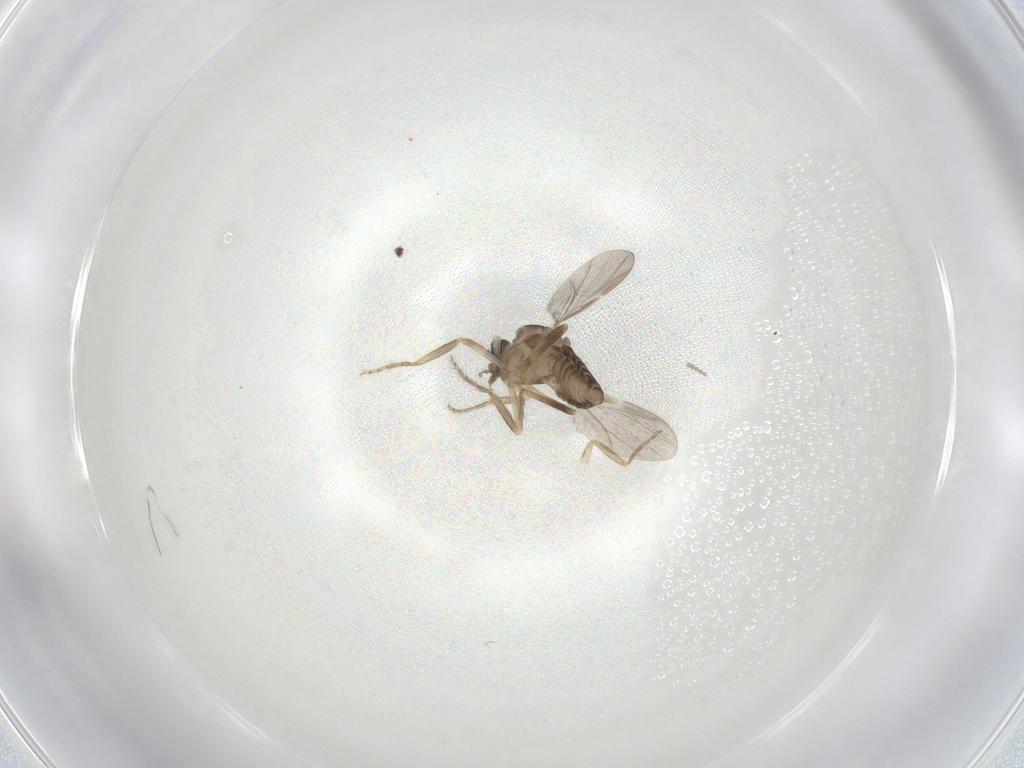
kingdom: Animalia
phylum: Arthropoda
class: Insecta
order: Diptera
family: Ceratopogonidae
